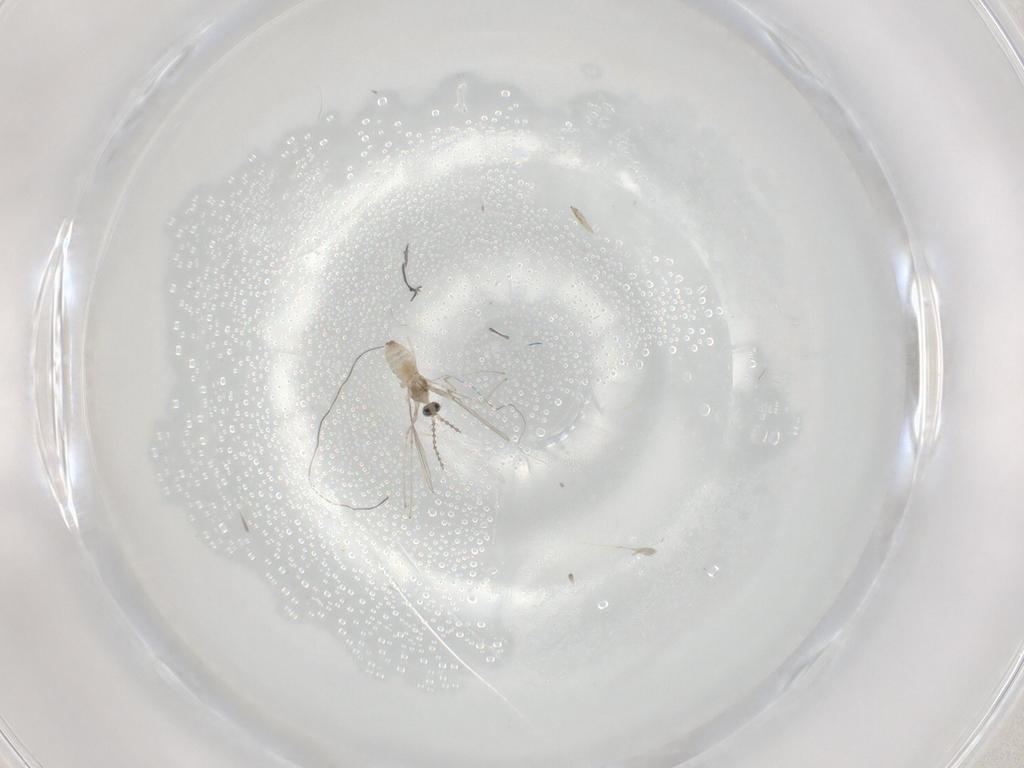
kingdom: Animalia
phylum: Arthropoda
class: Insecta
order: Diptera
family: Cecidomyiidae
